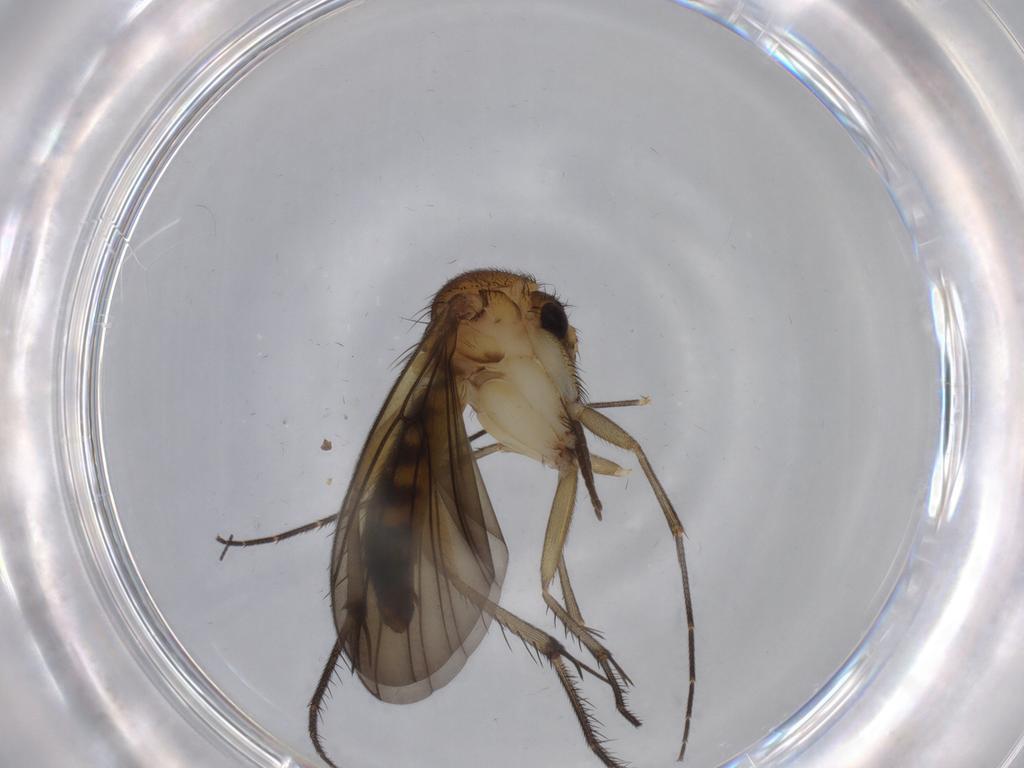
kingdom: Animalia
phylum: Arthropoda
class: Insecta
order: Diptera
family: Mycetophilidae
